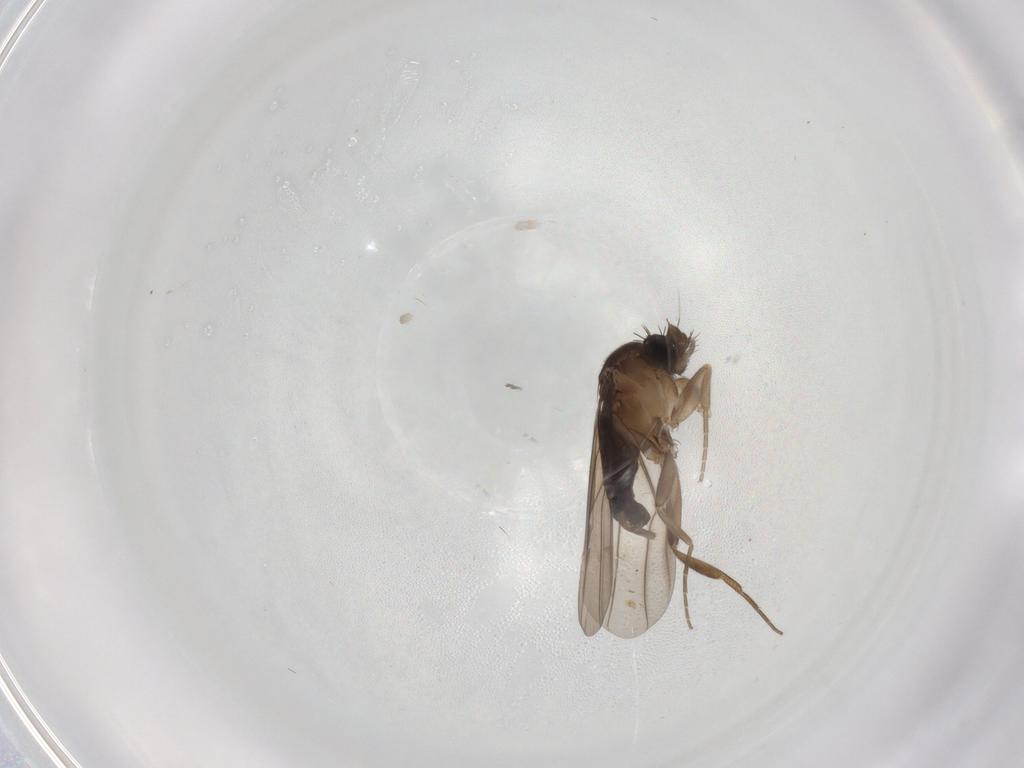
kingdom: Animalia
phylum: Arthropoda
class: Insecta
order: Diptera
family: Phoridae
